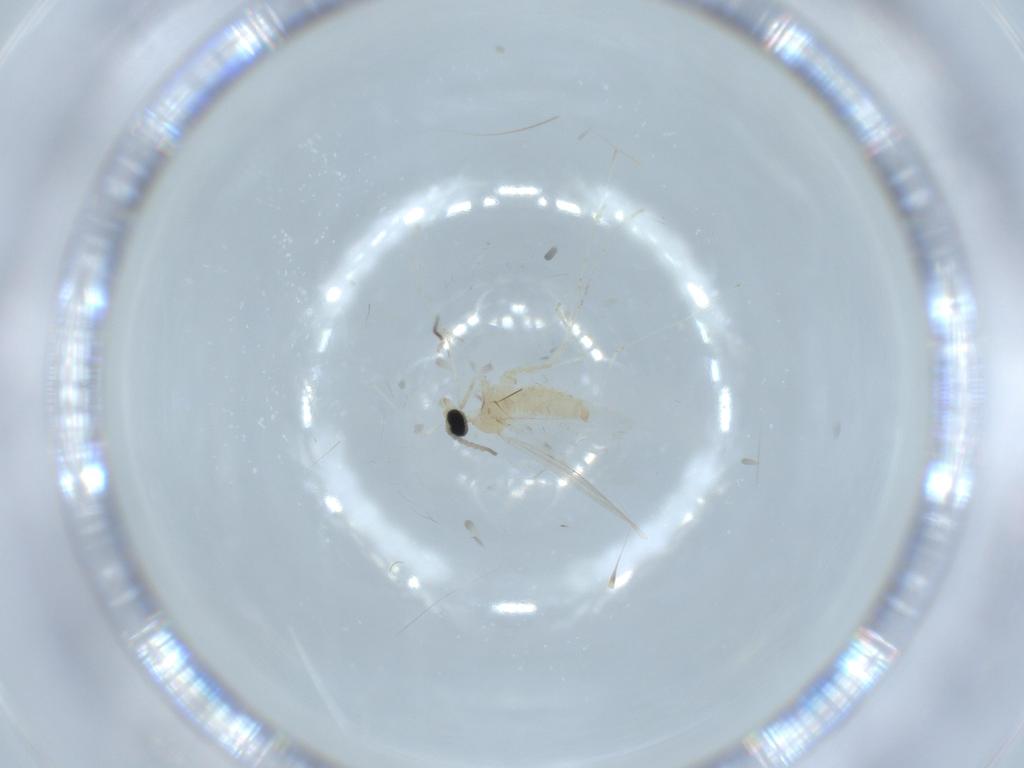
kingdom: Animalia
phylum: Arthropoda
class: Insecta
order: Diptera
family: Cecidomyiidae
